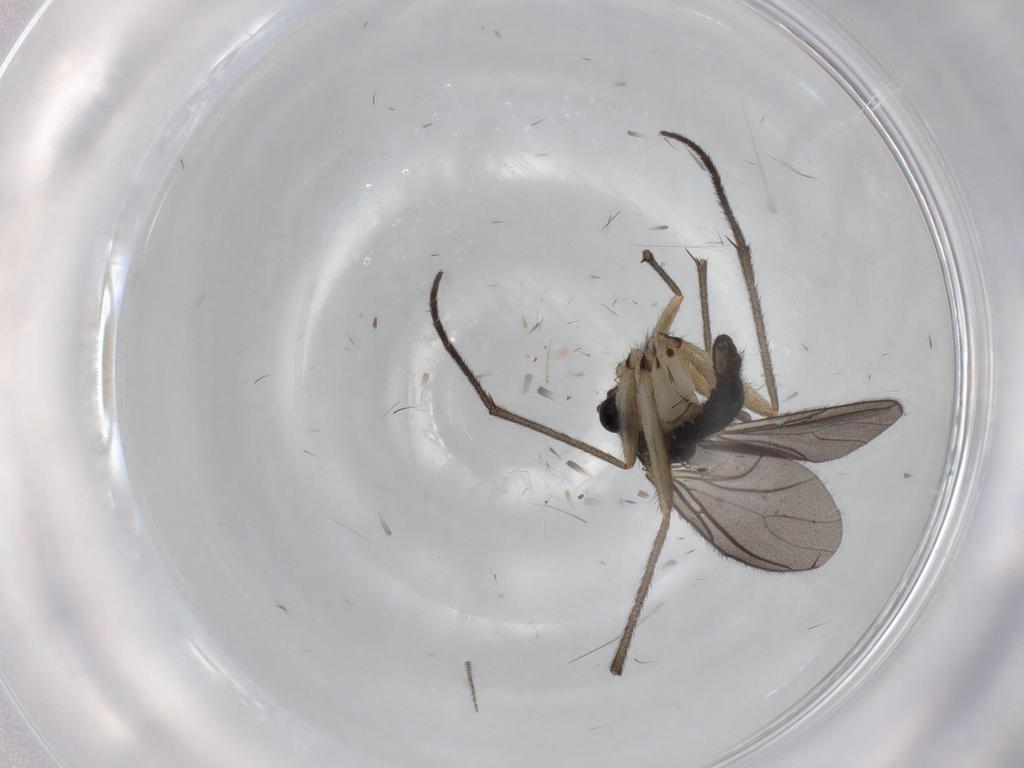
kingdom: Animalia
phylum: Arthropoda
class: Insecta
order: Diptera
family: Sciaridae
